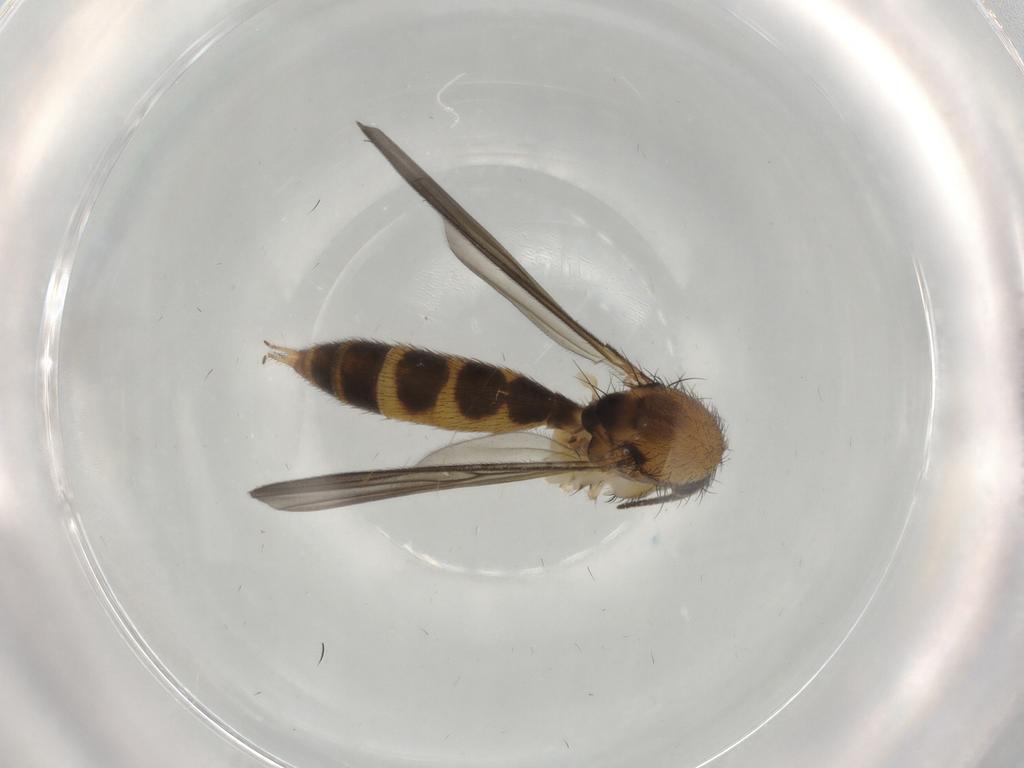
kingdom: Animalia
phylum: Arthropoda
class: Insecta
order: Diptera
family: Mycetophilidae
